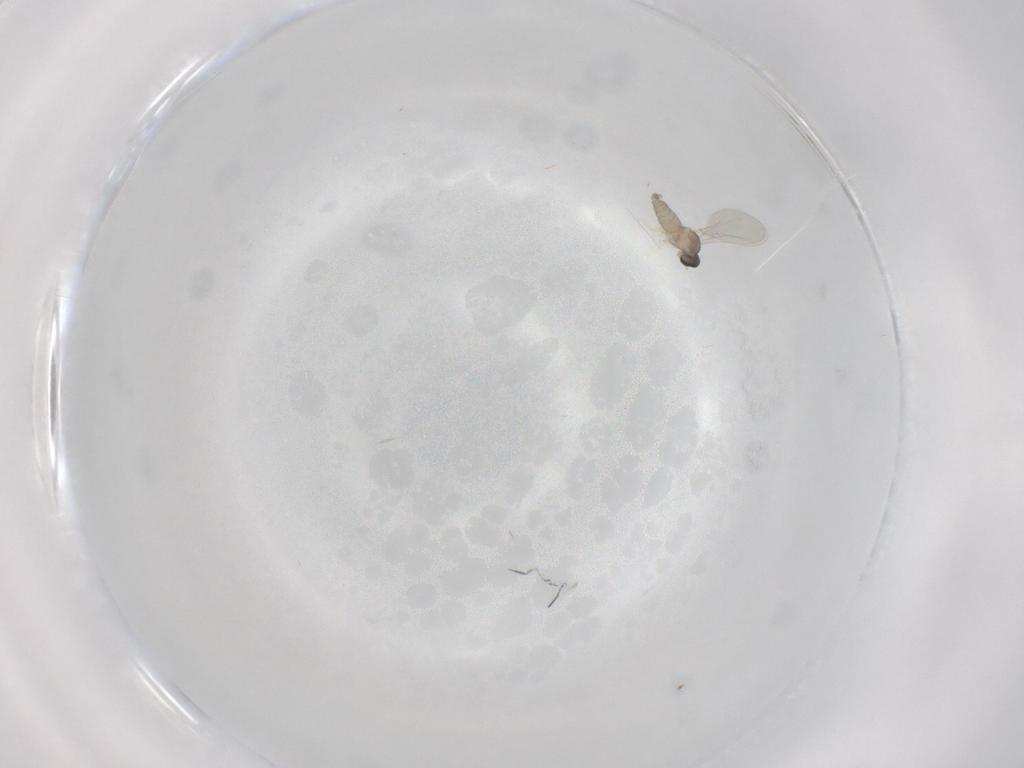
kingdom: Animalia
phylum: Arthropoda
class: Insecta
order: Diptera
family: Cecidomyiidae
